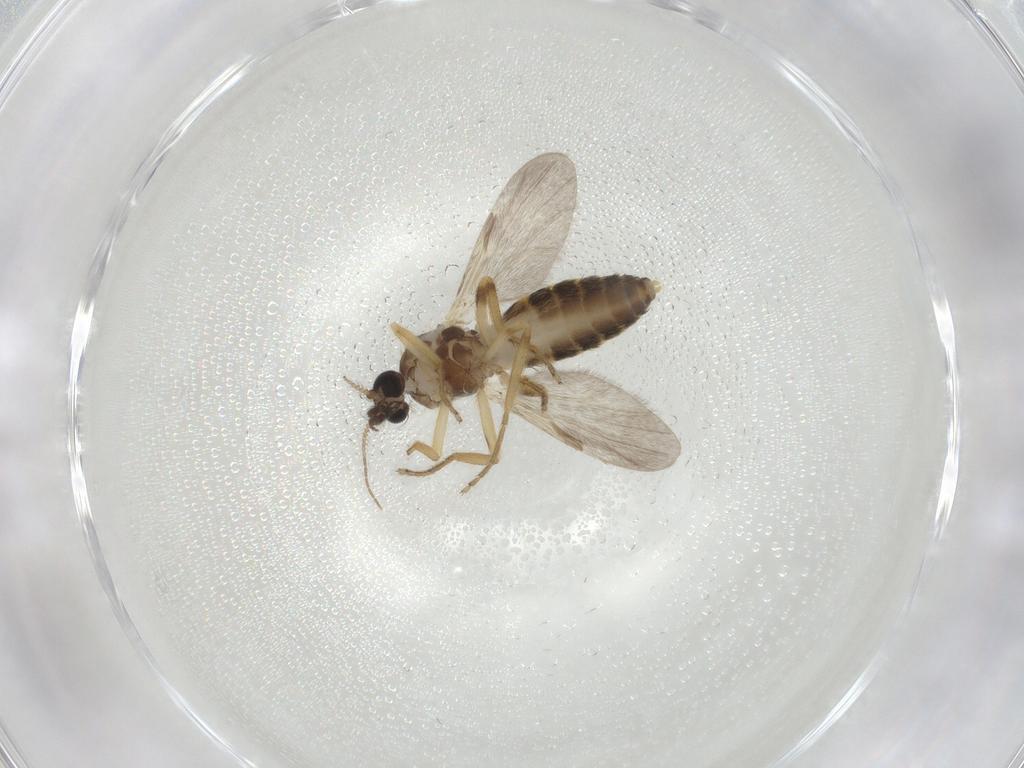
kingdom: Animalia
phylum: Arthropoda
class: Insecta
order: Diptera
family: Ceratopogonidae
